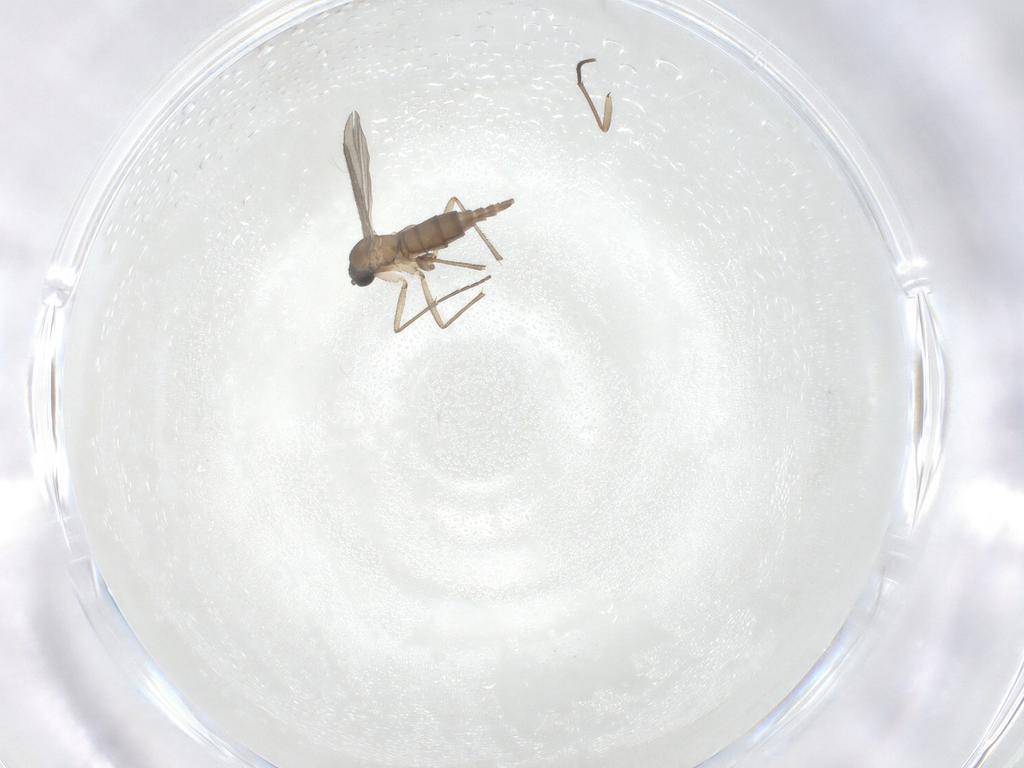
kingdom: Animalia
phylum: Arthropoda
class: Insecta
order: Diptera
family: Sciaridae
